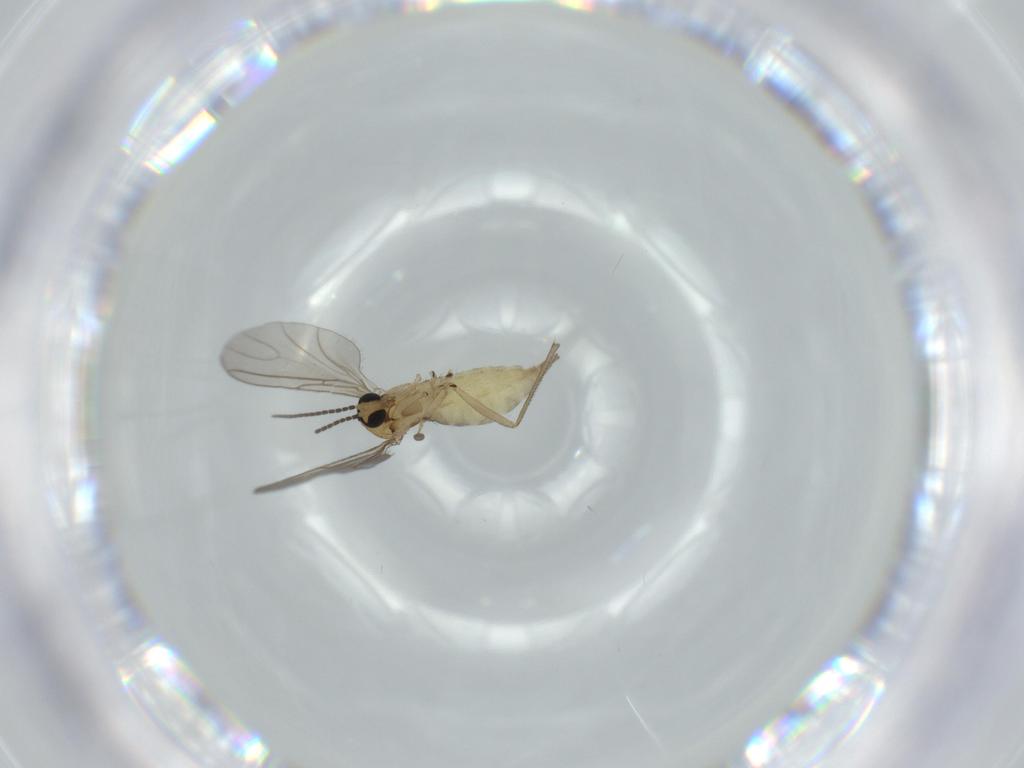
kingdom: Animalia
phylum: Arthropoda
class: Insecta
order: Diptera
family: Sciaridae
